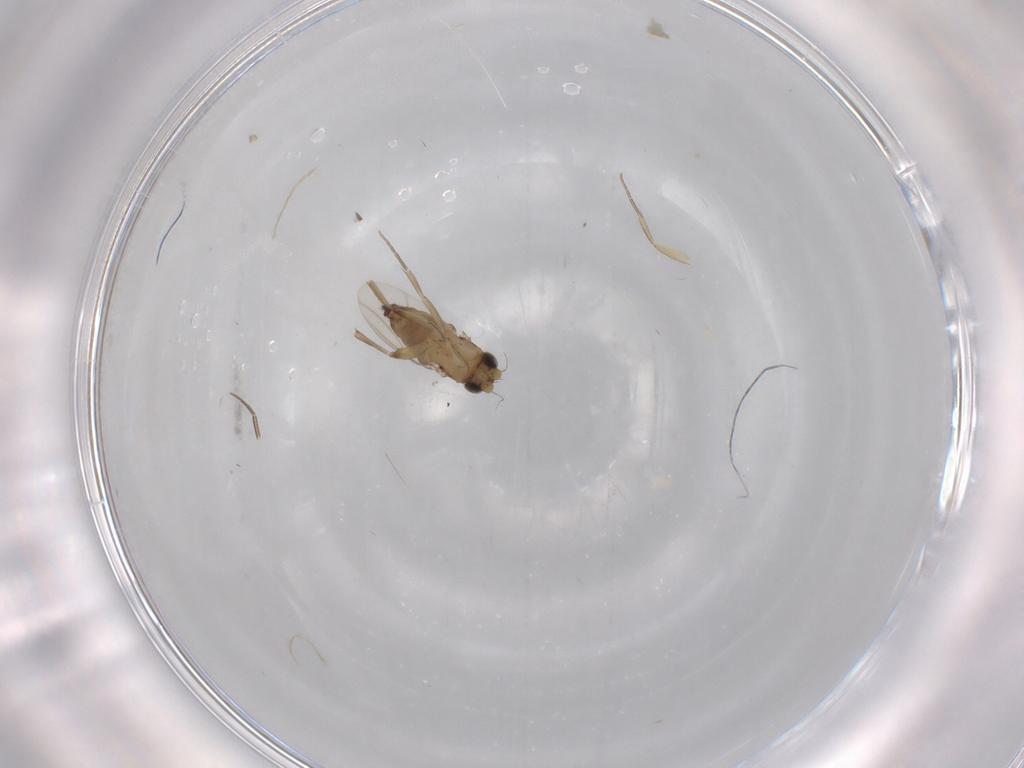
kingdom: Animalia
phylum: Arthropoda
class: Insecta
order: Diptera
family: Phoridae
